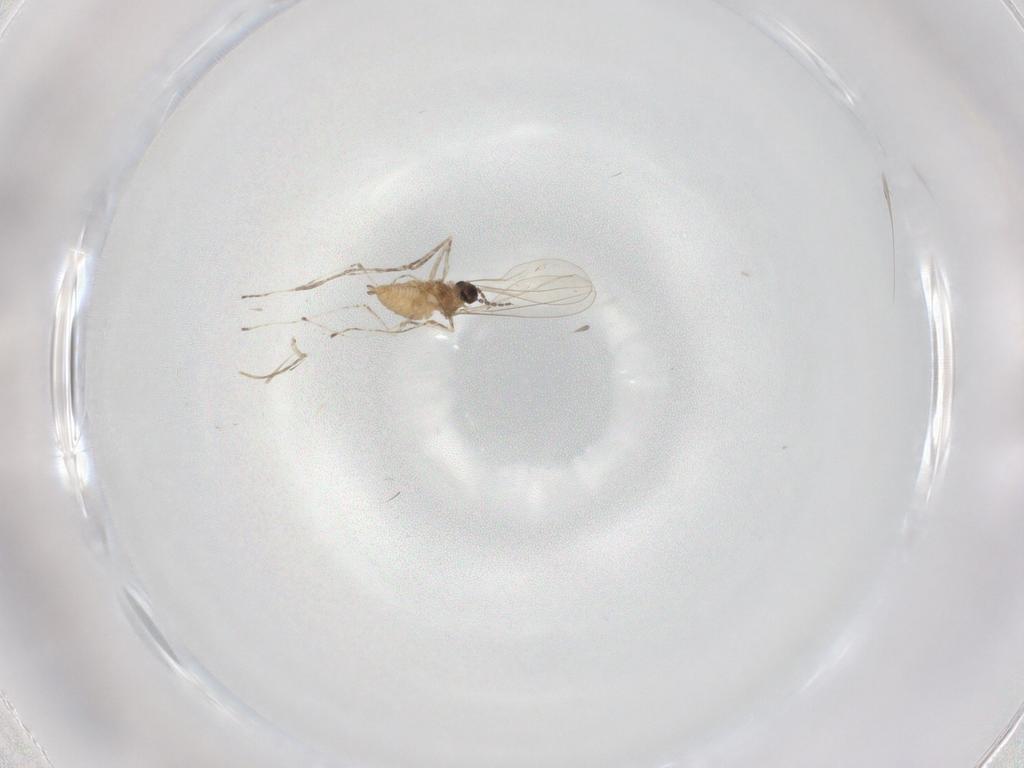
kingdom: Animalia
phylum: Arthropoda
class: Insecta
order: Diptera
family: Cecidomyiidae
